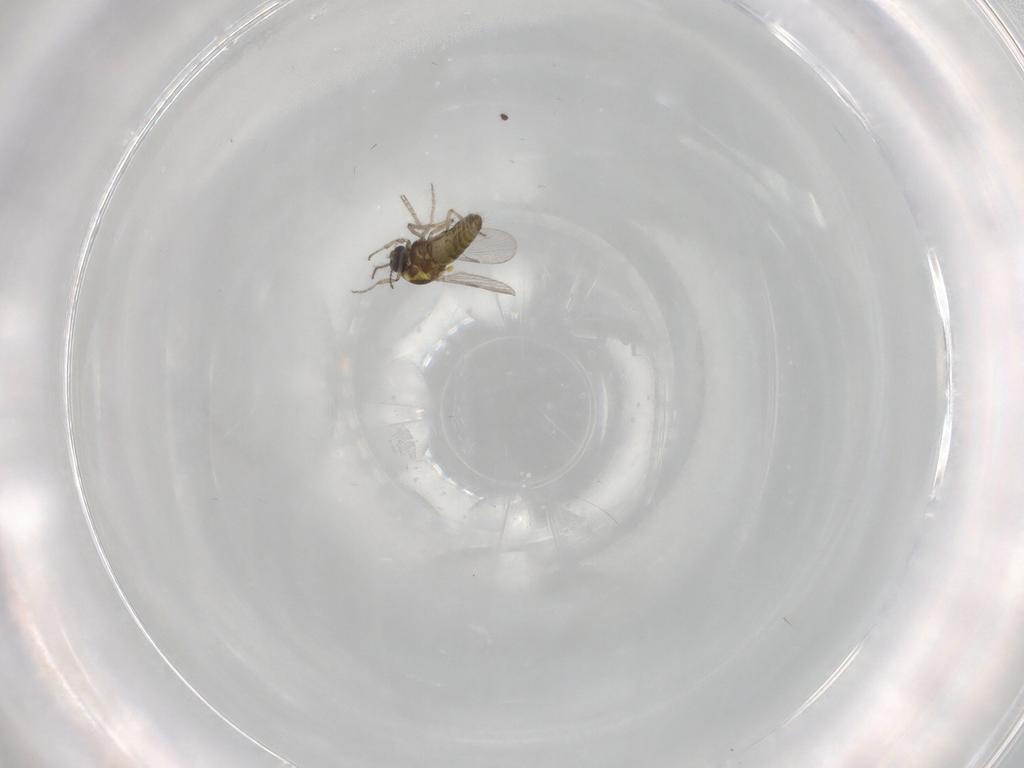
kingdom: Animalia
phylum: Arthropoda
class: Insecta
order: Diptera
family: Ceratopogonidae
